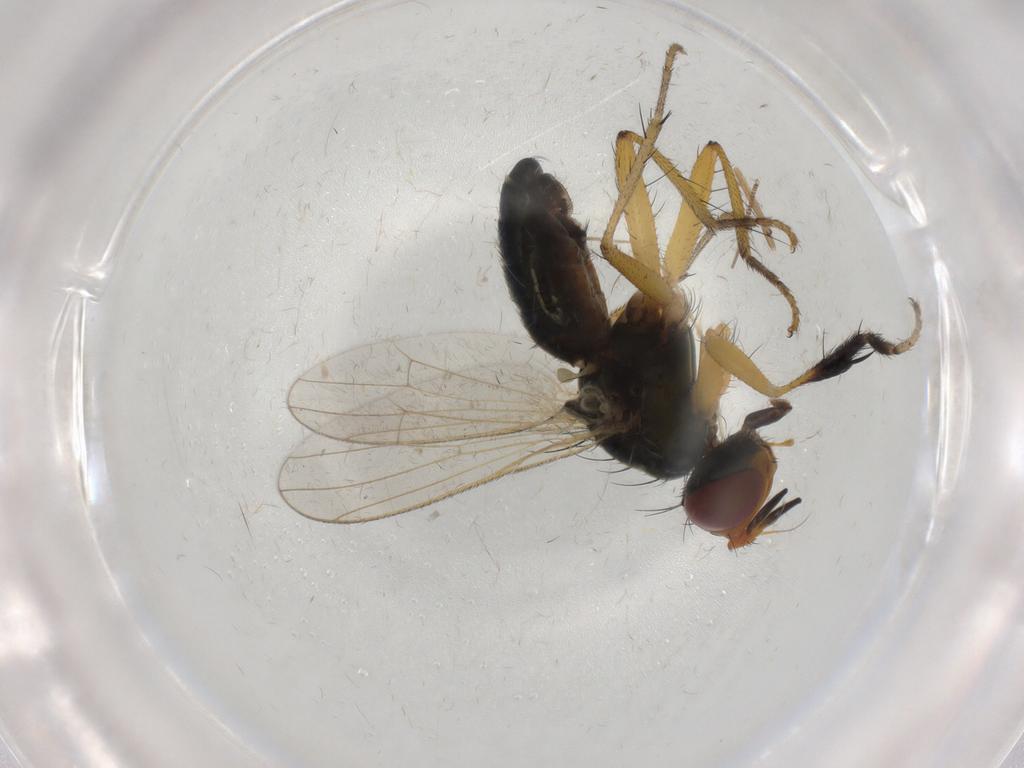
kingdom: Animalia
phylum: Arthropoda
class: Insecta
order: Diptera
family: Muscidae
